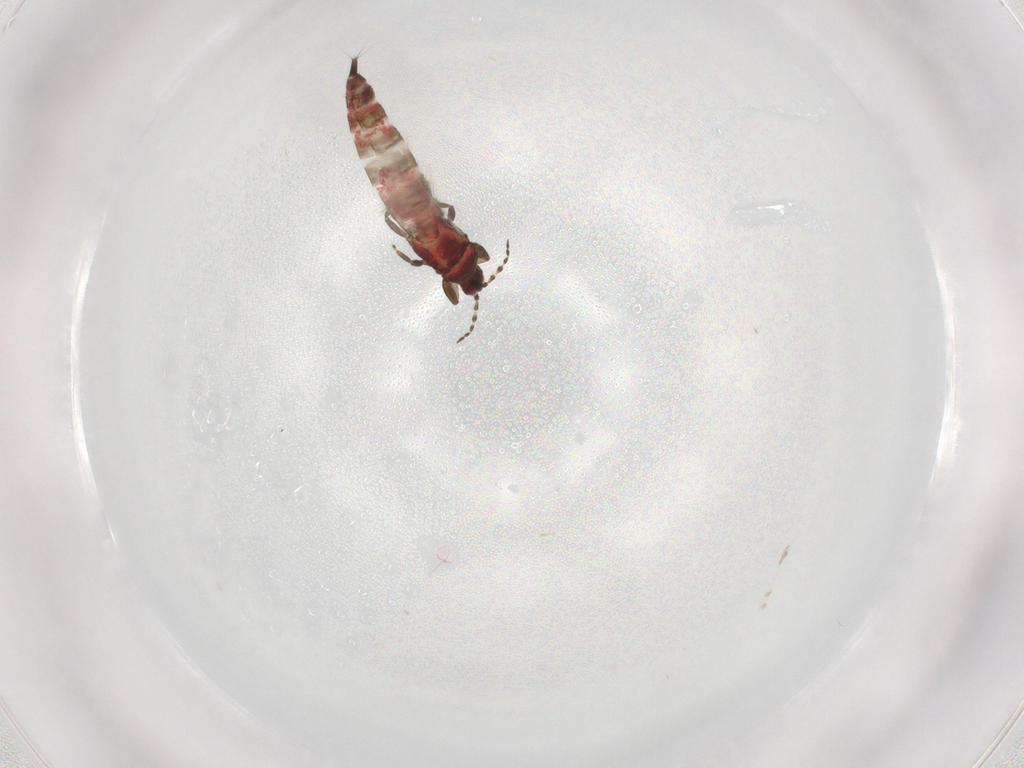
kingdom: Animalia
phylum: Arthropoda
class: Insecta
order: Thysanoptera
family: Phlaeothripidae
